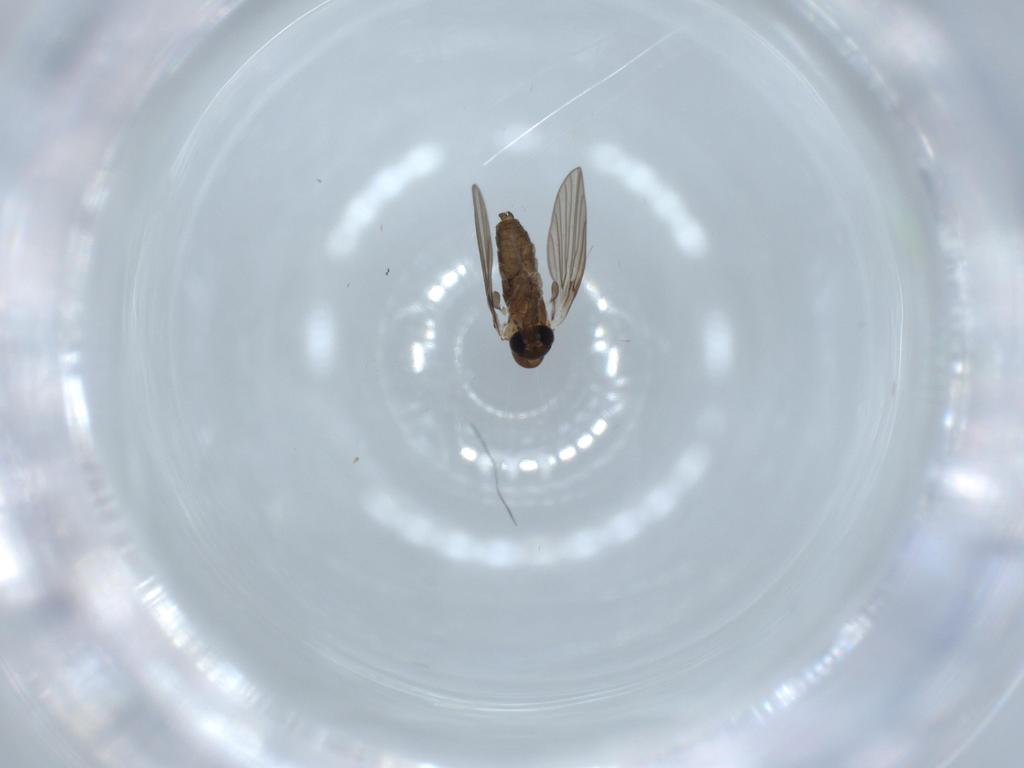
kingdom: Animalia
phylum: Arthropoda
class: Insecta
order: Diptera
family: Psychodidae
